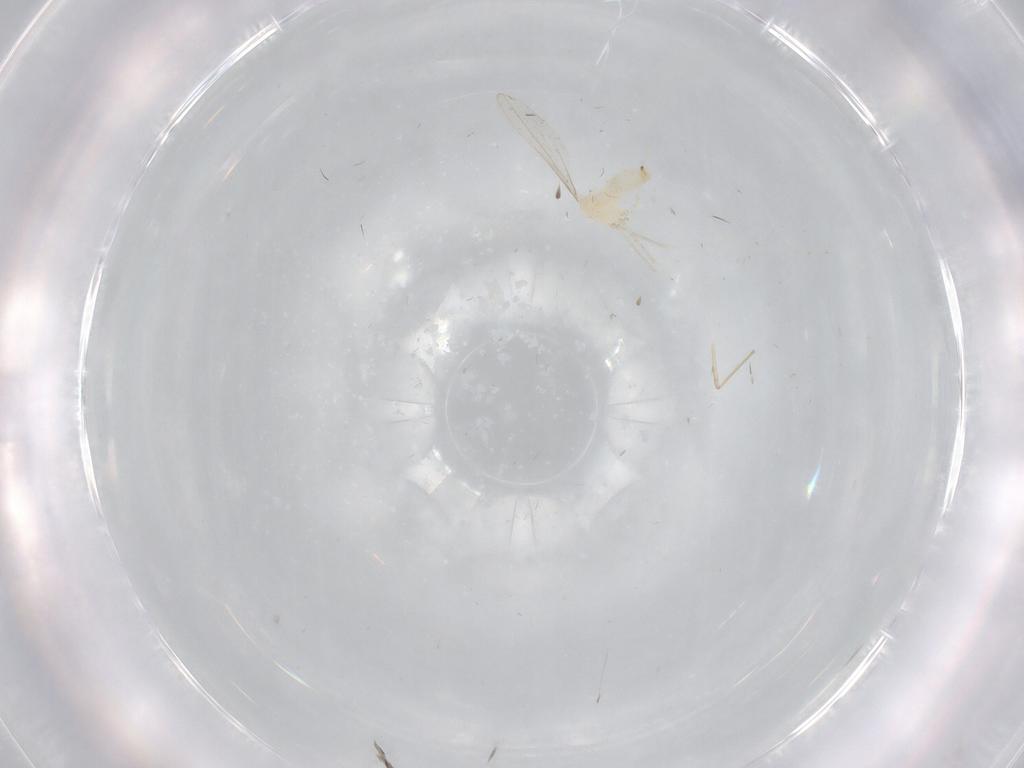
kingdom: Animalia
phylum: Arthropoda
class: Insecta
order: Diptera
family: Cecidomyiidae
